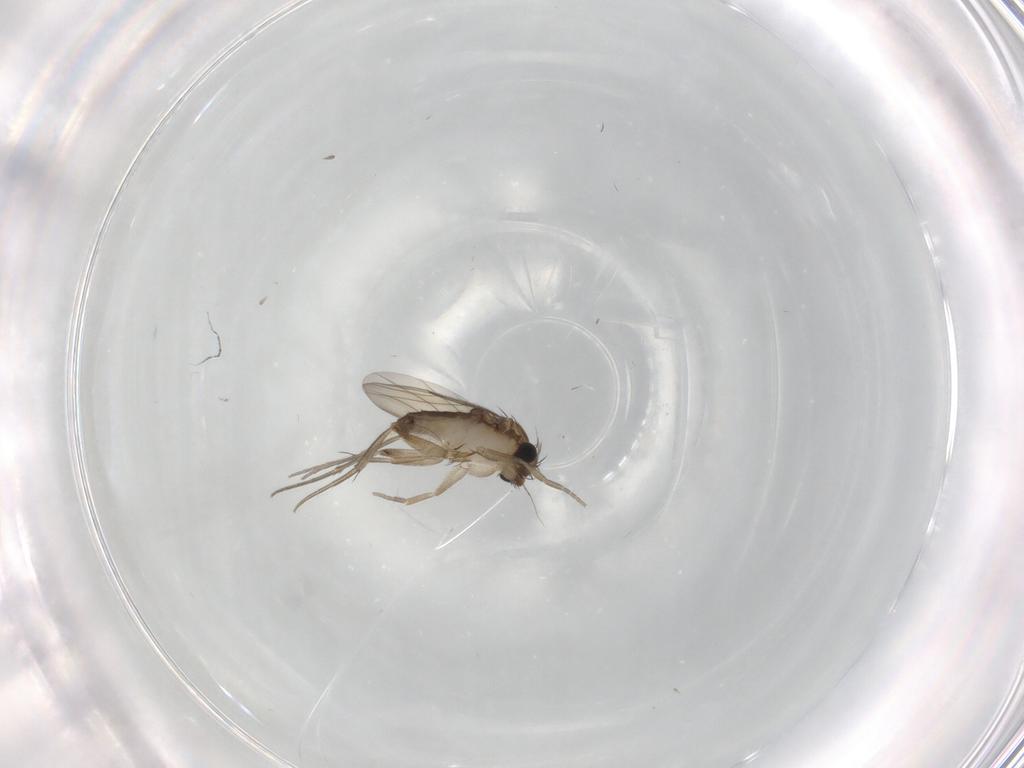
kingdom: Animalia
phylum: Arthropoda
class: Insecta
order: Diptera
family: Phoridae
